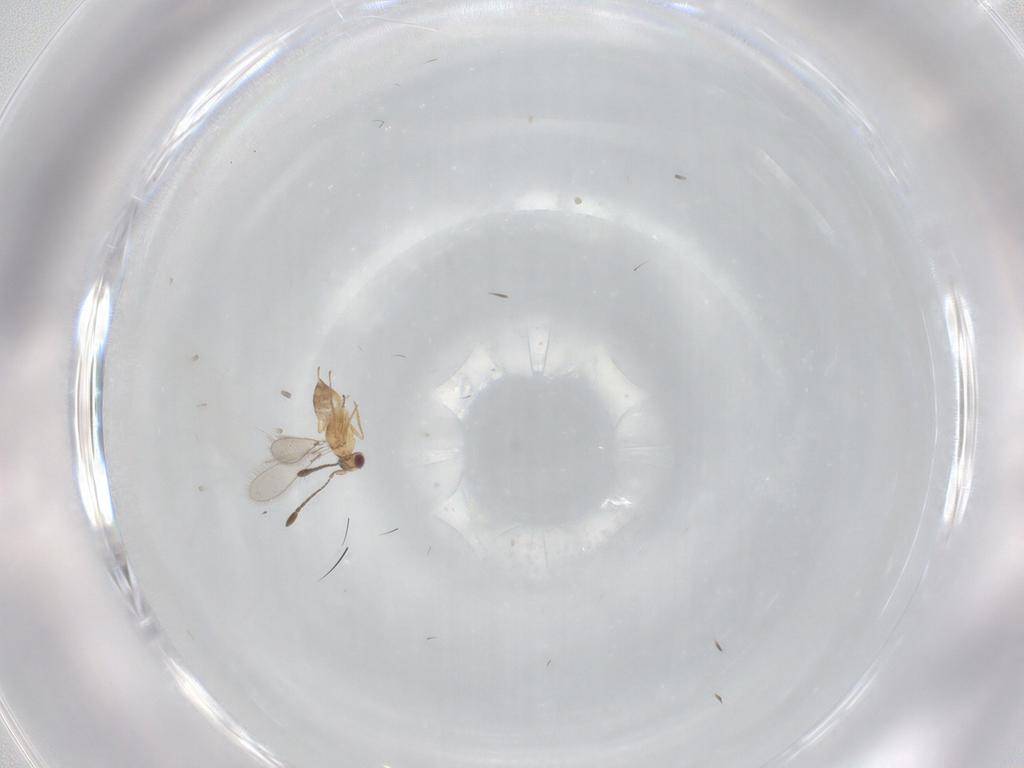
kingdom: Animalia
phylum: Arthropoda
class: Insecta
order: Hymenoptera
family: Mymaridae
